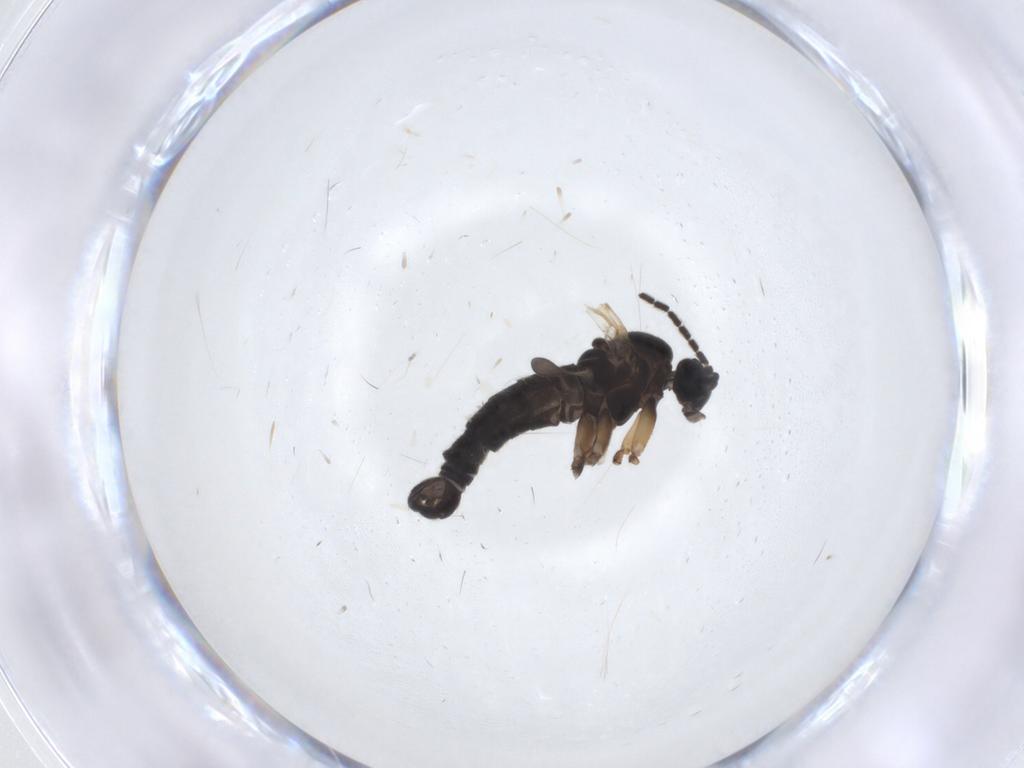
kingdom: Animalia
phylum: Arthropoda
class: Insecta
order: Diptera
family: Sciaridae
